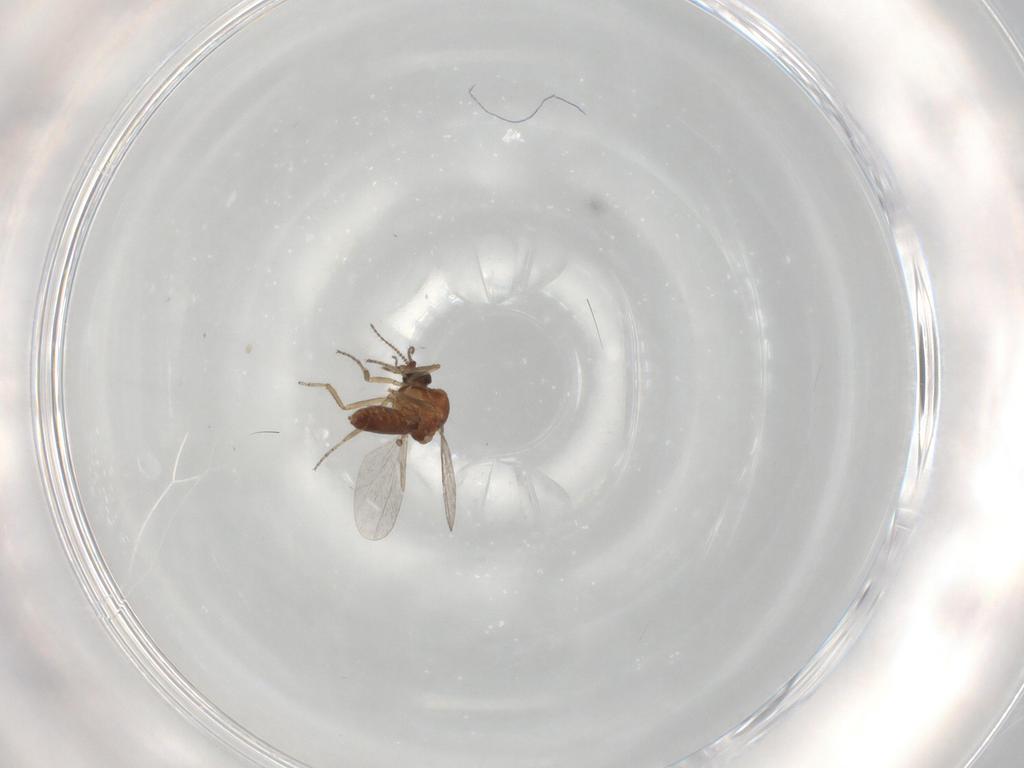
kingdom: Animalia
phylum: Arthropoda
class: Insecta
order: Diptera
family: Ceratopogonidae
